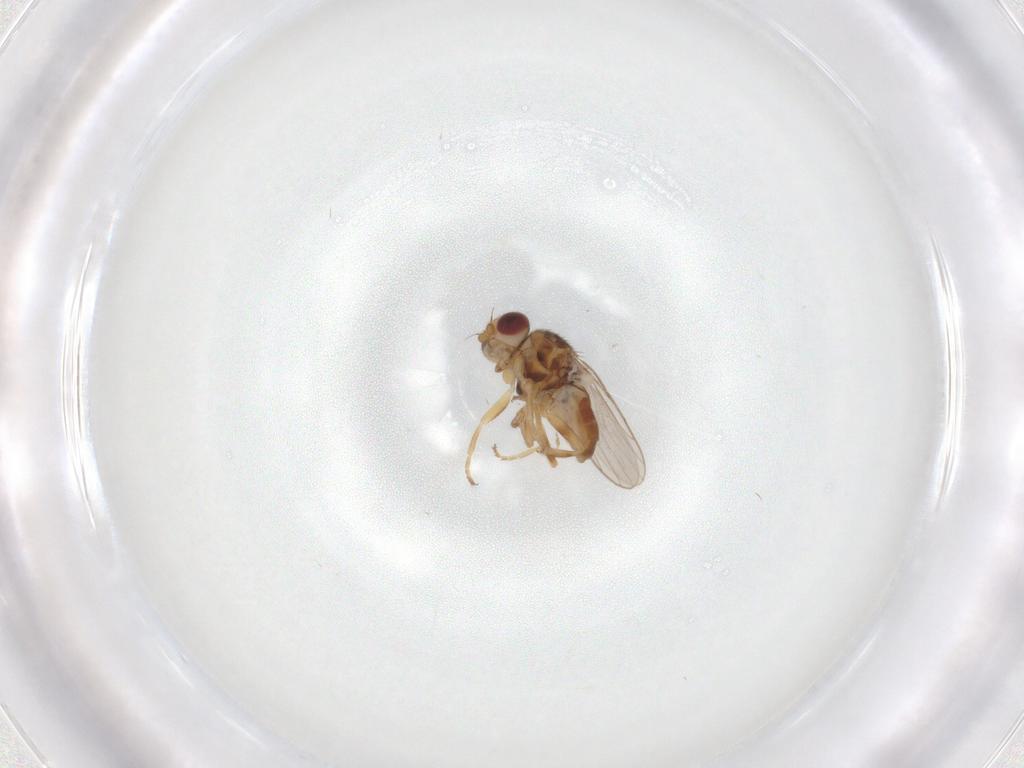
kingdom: Animalia
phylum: Arthropoda
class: Insecta
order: Diptera
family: Chloropidae
